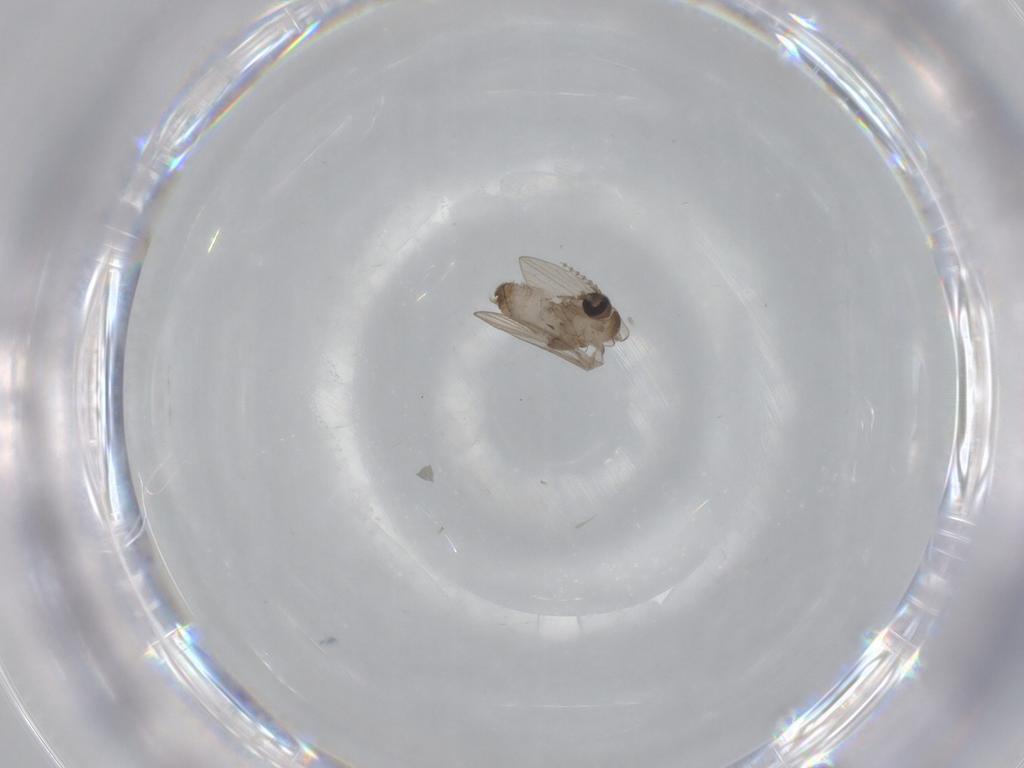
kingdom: Animalia
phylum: Arthropoda
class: Insecta
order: Diptera
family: Psychodidae
